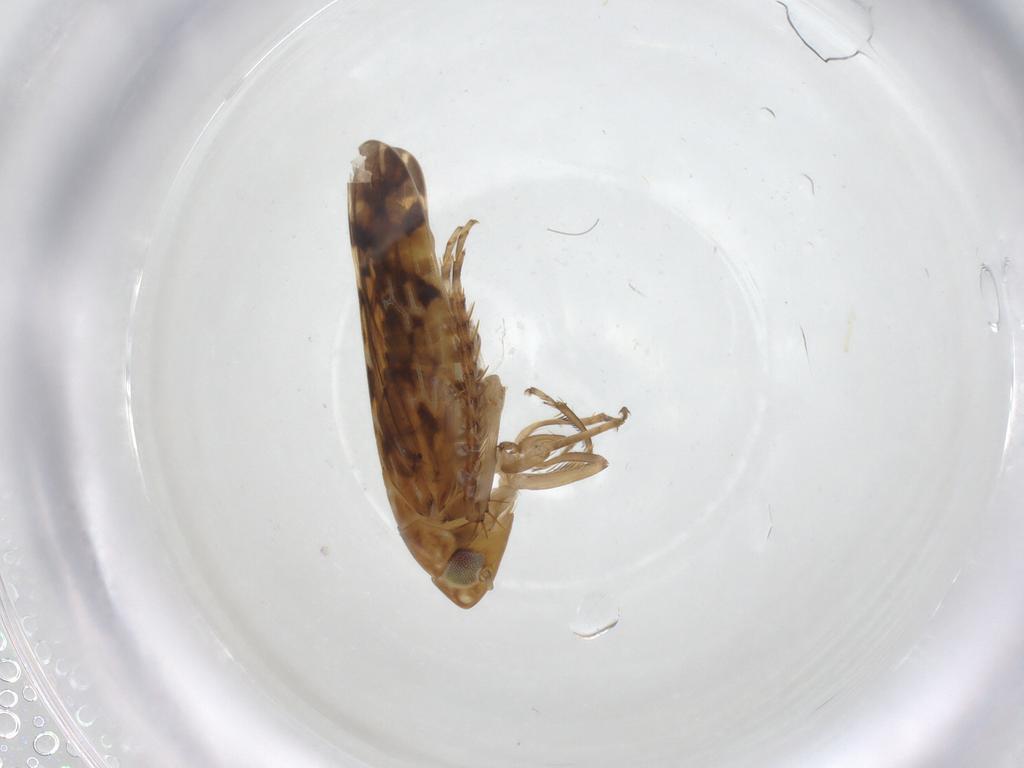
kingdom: Animalia
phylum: Arthropoda
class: Insecta
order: Hemiptera
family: Cicadellidae
